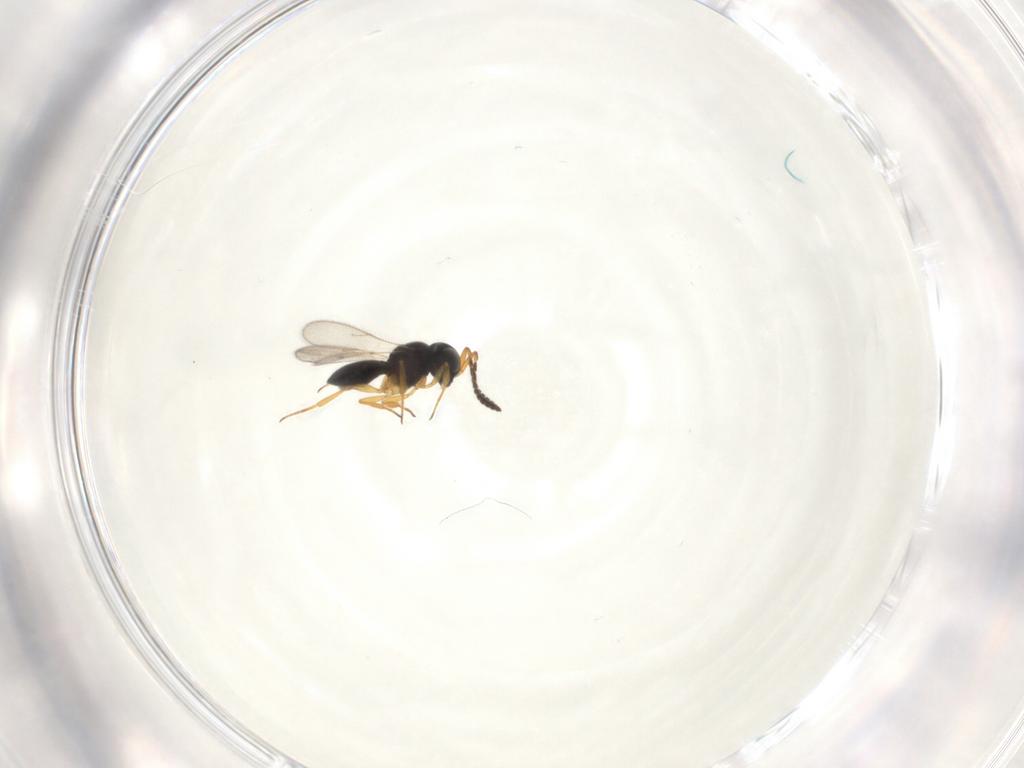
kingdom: Animalia
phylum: Arthropoda
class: Insecta
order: Hymenoptera
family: Scelionidae
